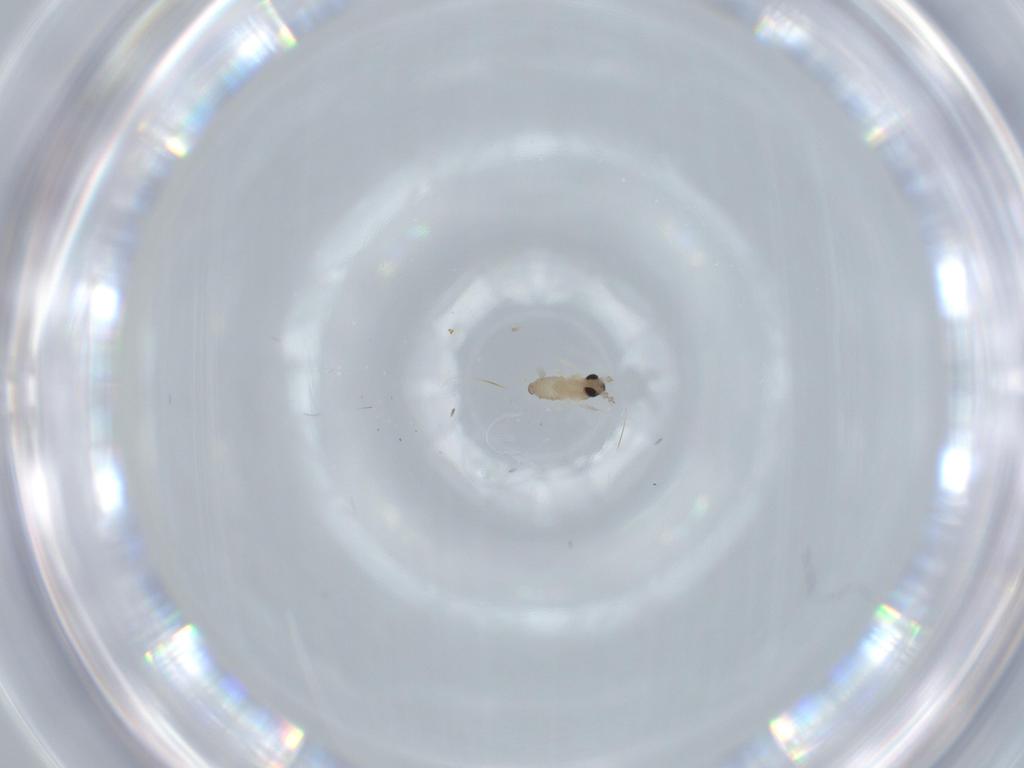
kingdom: Animalia
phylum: Arthropoda
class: Insecta
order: Diptera
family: Cecidomyiidae
